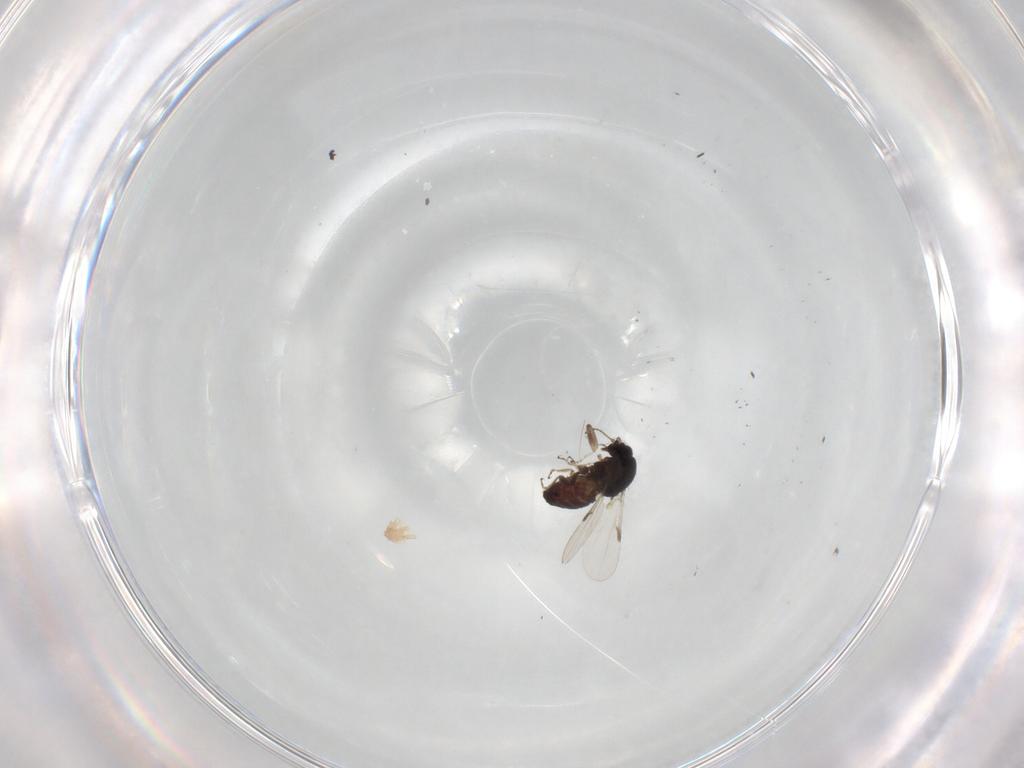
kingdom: Animalia
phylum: Arthropoda
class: Insecta
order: Diptera
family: Ceratopogonidae
